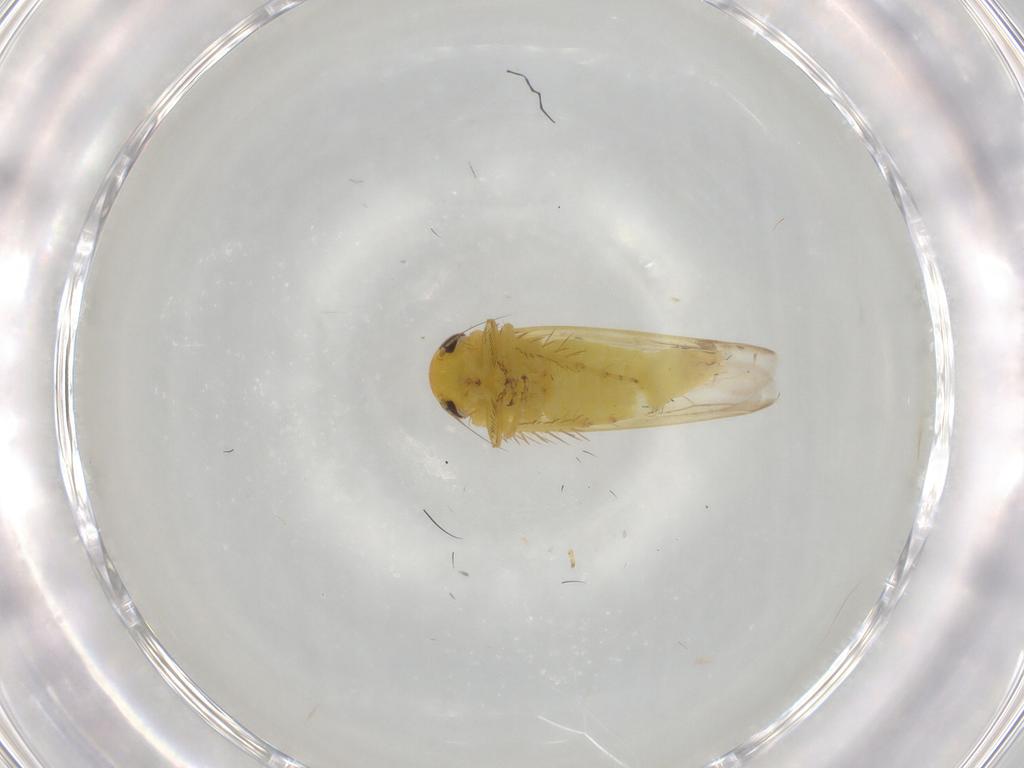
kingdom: Animalia
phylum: Arthropoda
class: Insecta
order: Hemiptera
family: Cicadellidae
